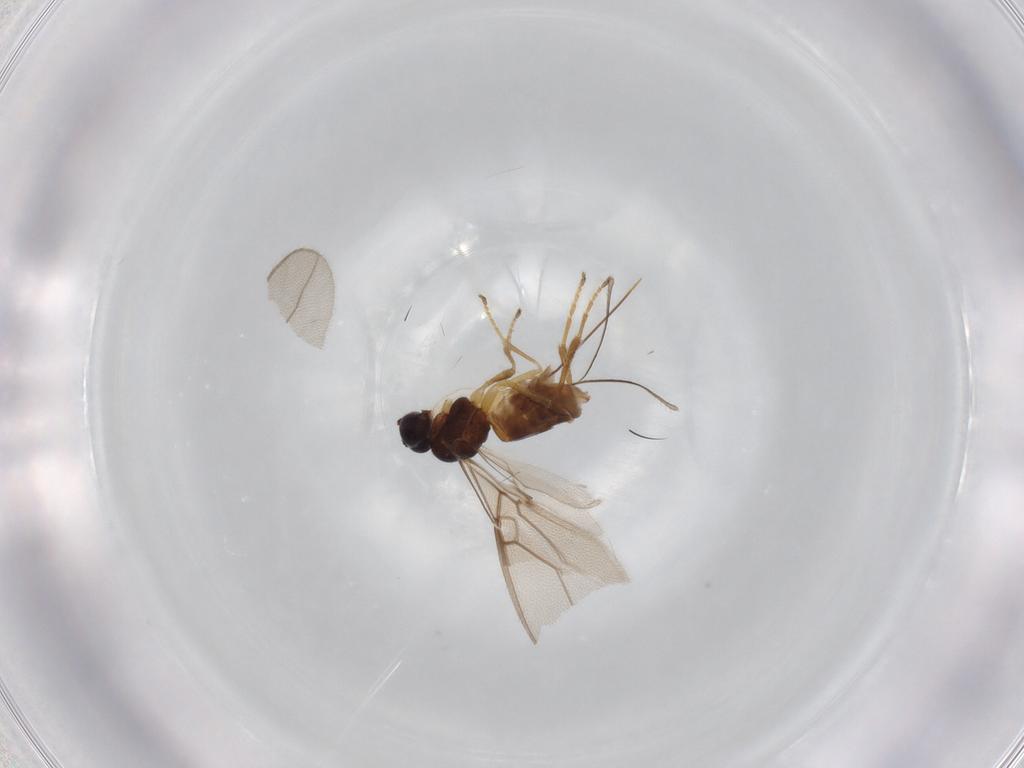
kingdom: Animalia
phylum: Arthropoda
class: Insecta
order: Hymenoptera
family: Braconidae
